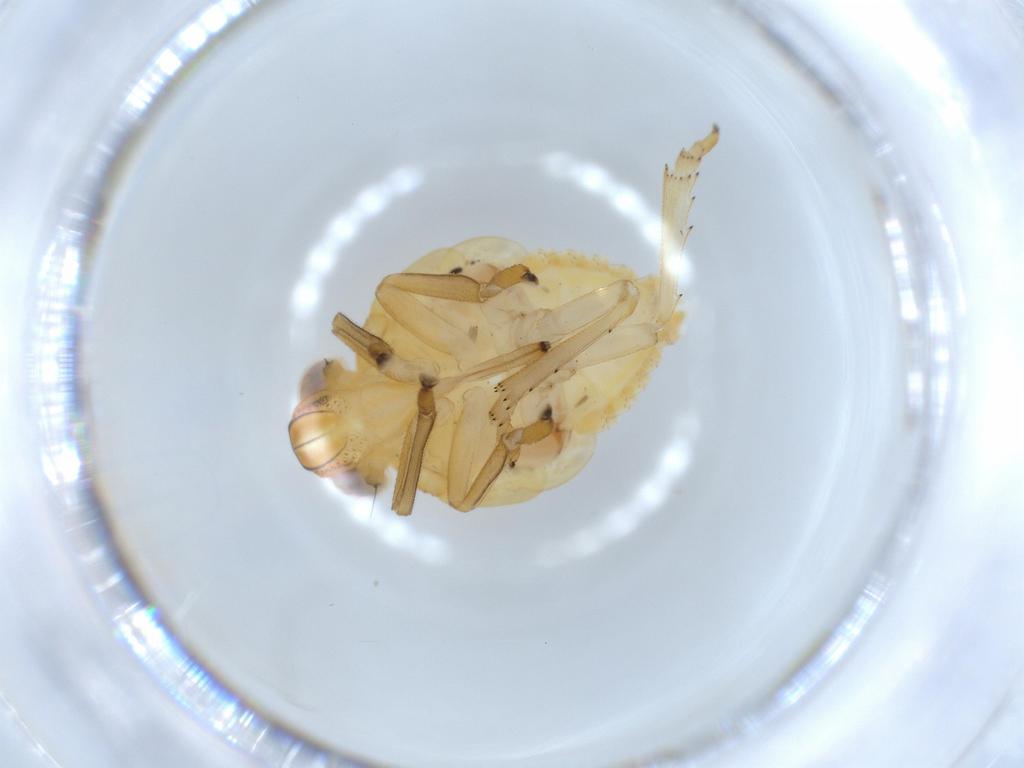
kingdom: Animalia
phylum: Arthropoda
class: Insecta
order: Hemiptera
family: Issidae
